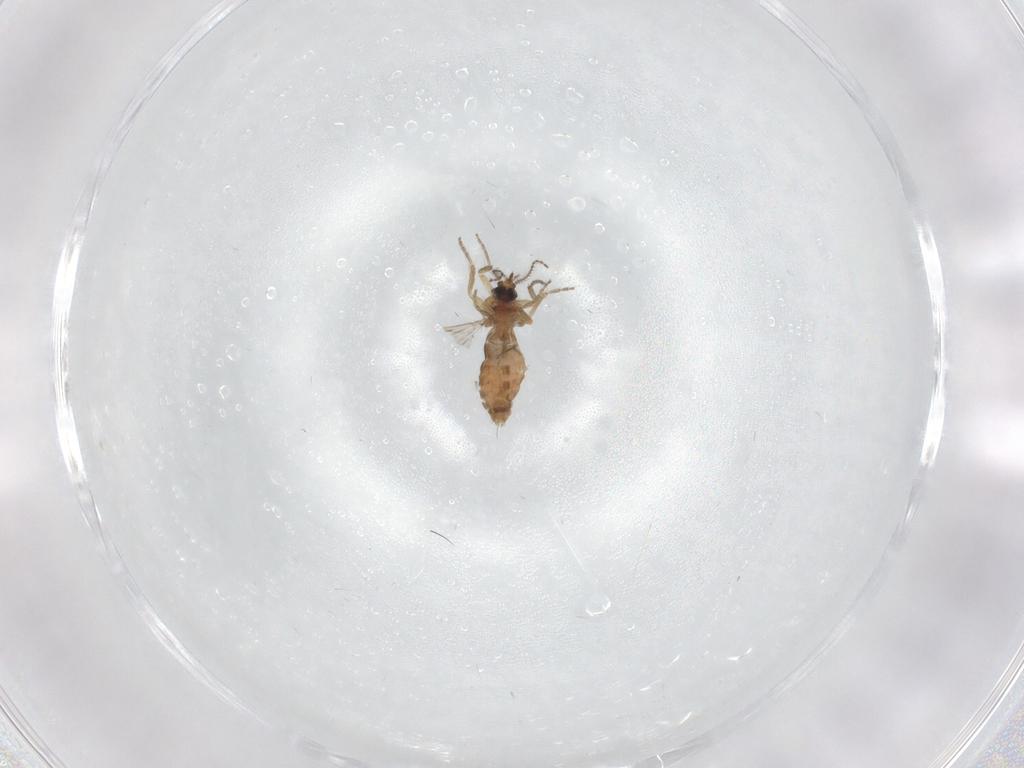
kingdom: Animalia
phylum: Arthropoda
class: Insecta
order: Diptera
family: Ceratopogonidae
